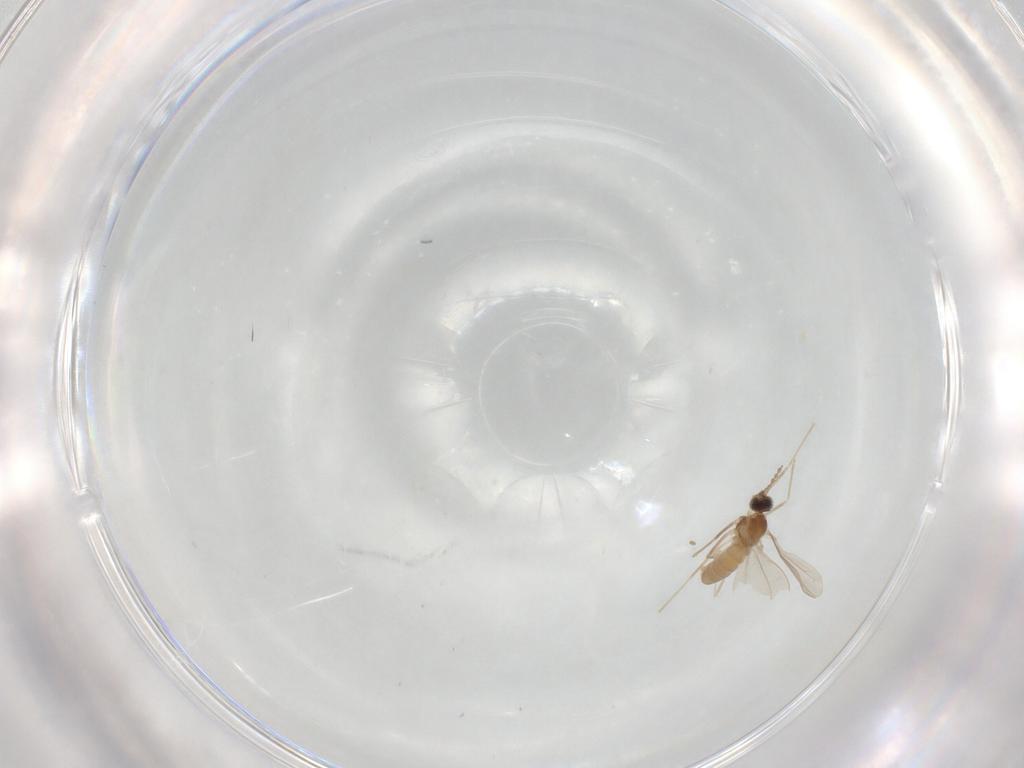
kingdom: Animalia
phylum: Arthropoda
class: Insecta
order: Diptera
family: Cecidomyiidae
